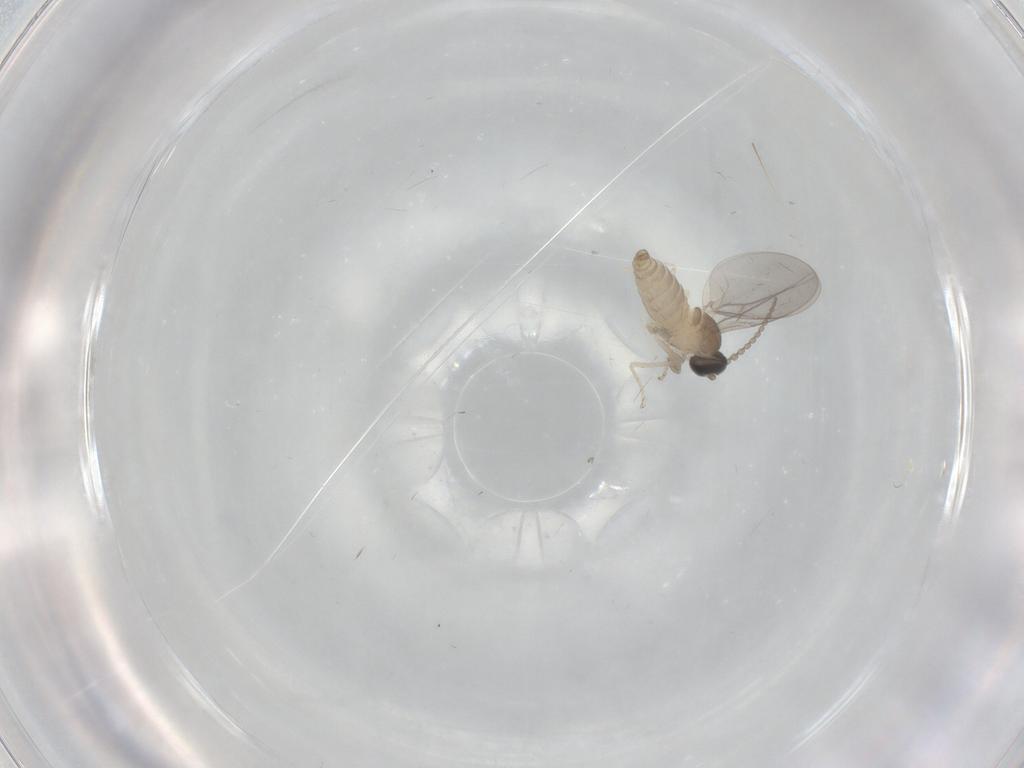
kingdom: Animalia
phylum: Arthropoda
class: Insecta
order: Diptera
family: Cecidomyiidae
